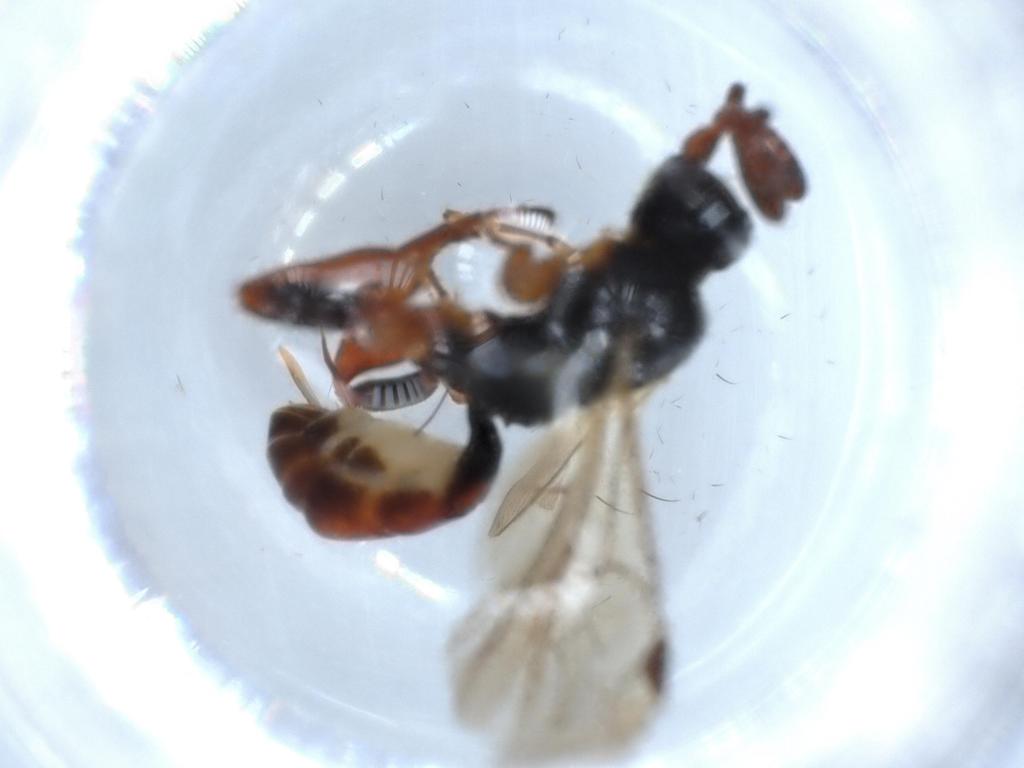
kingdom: Animalia
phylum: Arthropoda
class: Insecta
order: Hymenoptera
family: Ichneumonidae
